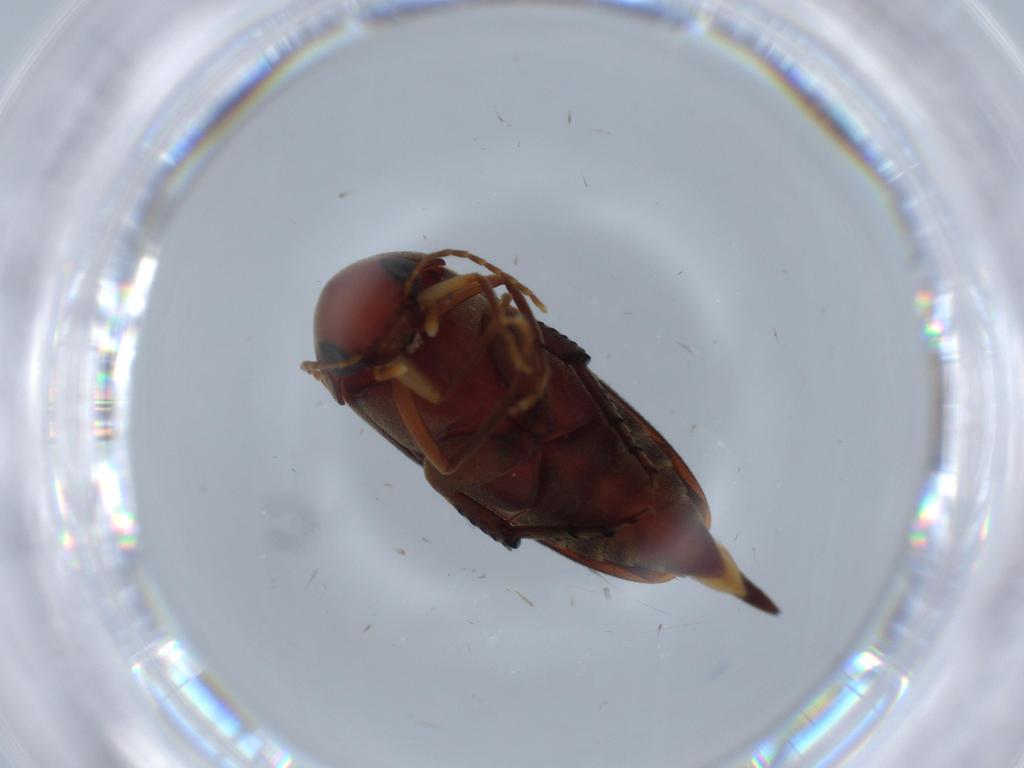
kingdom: Animalia
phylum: Arthropoda
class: Insecta
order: Coleoptera
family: Mordellidae
